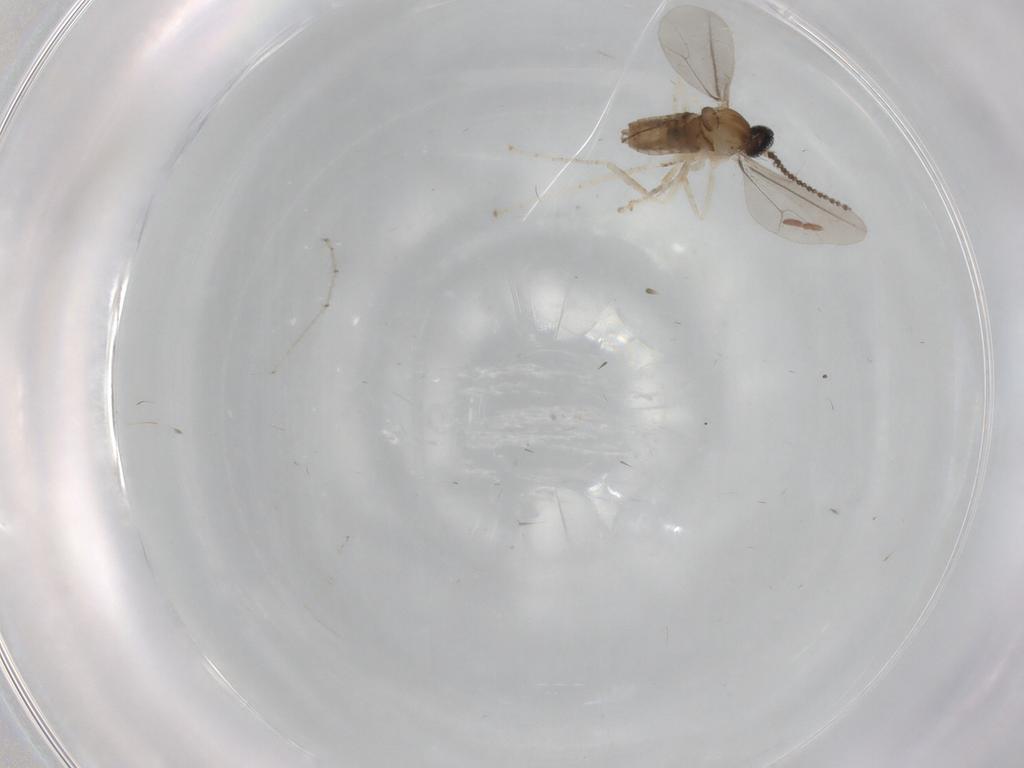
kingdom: Animalia
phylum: Arthropoda
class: Insecta
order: Diptera
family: Cecidomyiidae
